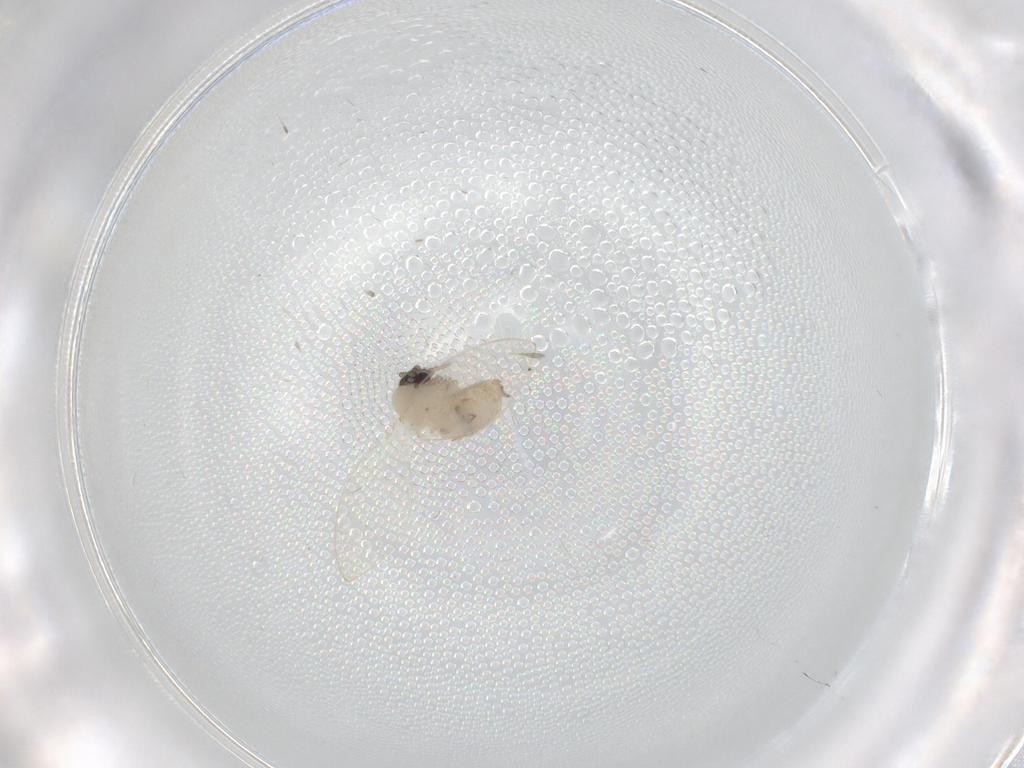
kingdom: Animalia
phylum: Arthropoda
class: Insecta
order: Diptera
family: Psychodidae
